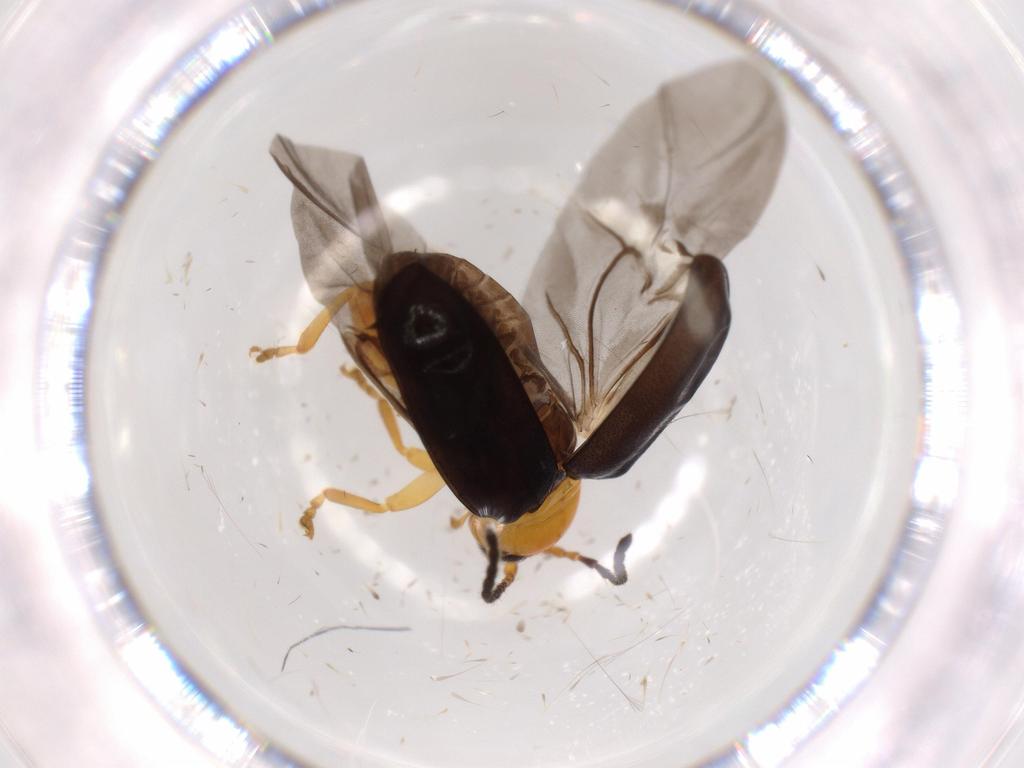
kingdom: Animalia
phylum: Arthropoda
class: Insecta
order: Coleoptera
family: Chrysomelidae
